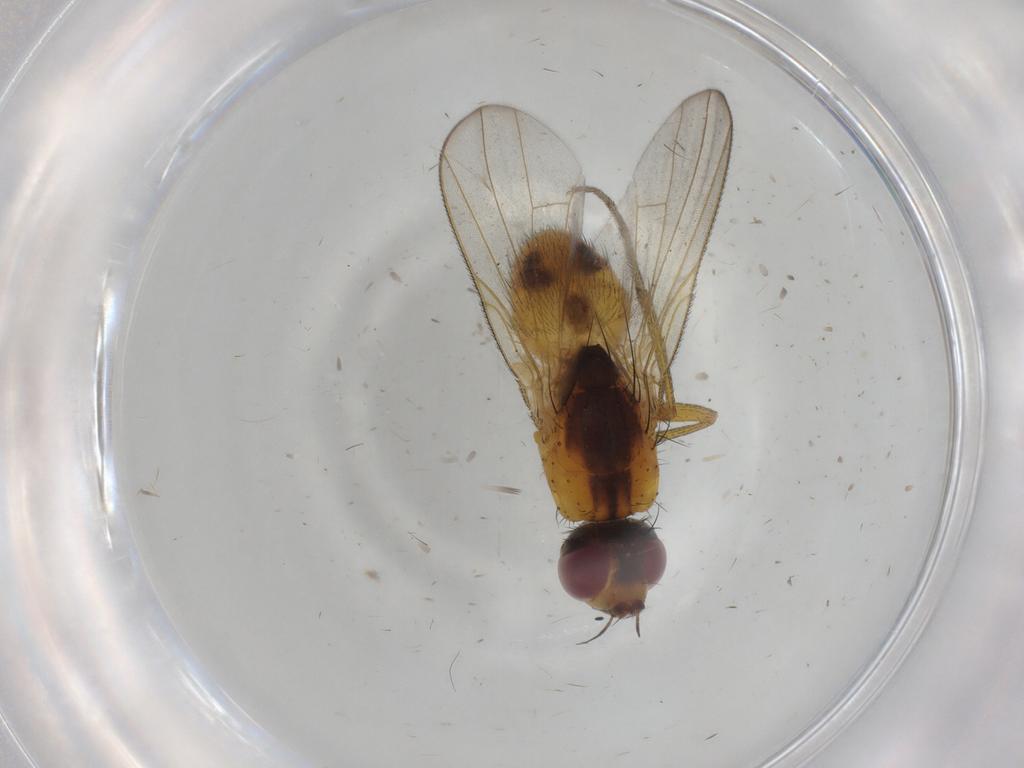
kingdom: Animalia
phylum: Arthropoda
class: Insecta
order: Diptera
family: Muscidae
